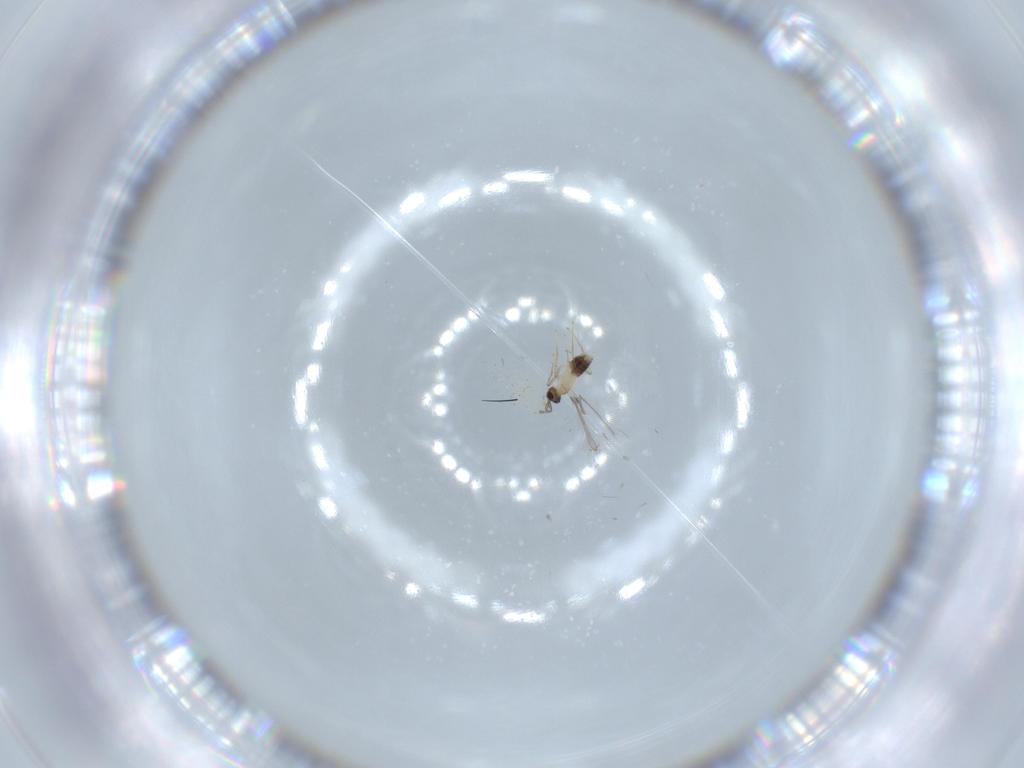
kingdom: Animalia
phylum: Arthropoda
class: Insecta
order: Hymenoptera
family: Mymaridae
